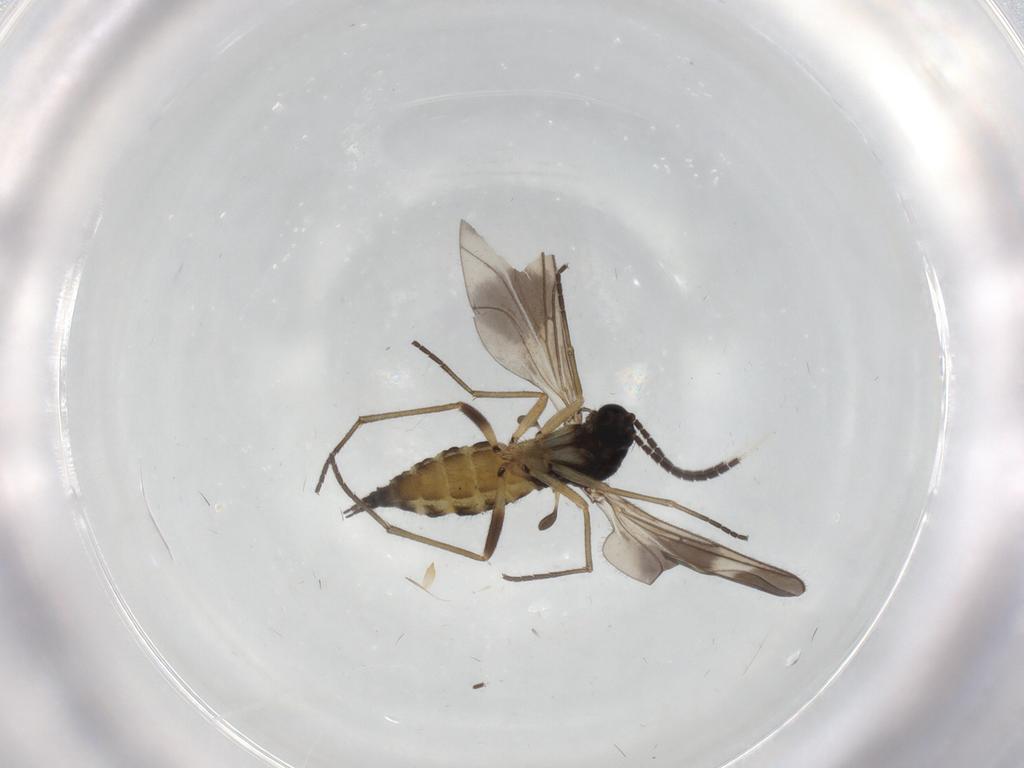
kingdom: Animalia
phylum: Arthropoda
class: Insecta
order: Diptera
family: Sciaridae
